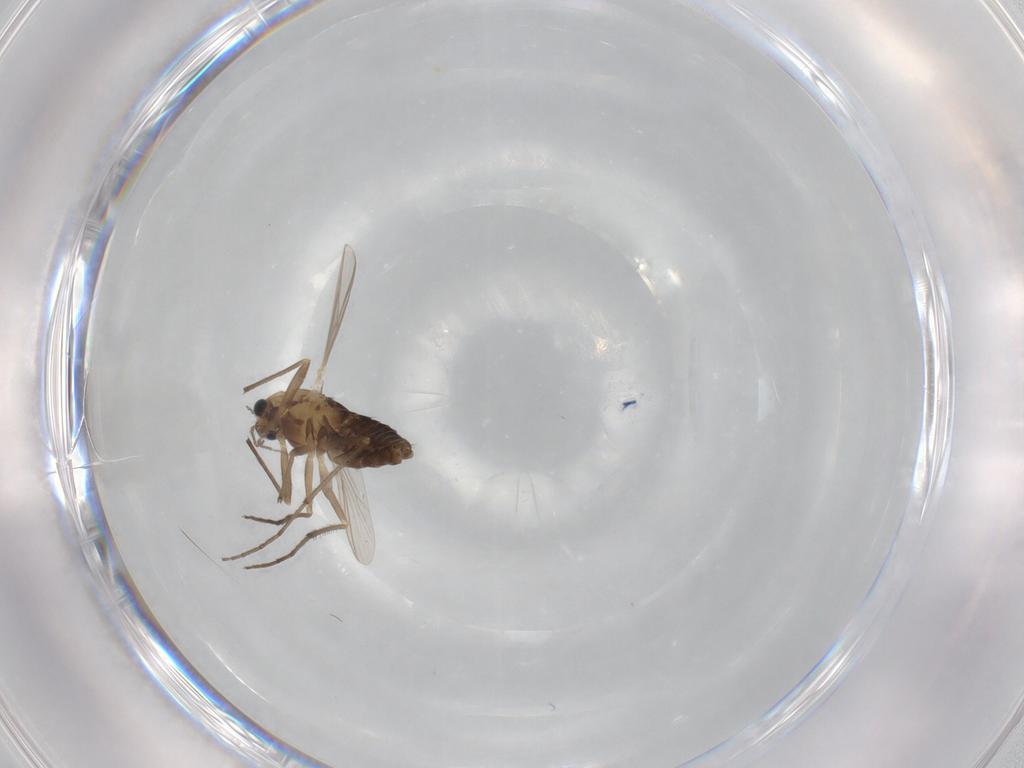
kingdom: Animalia
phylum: Arthropoda
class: Insecta
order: Diptera
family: Chironomidae
